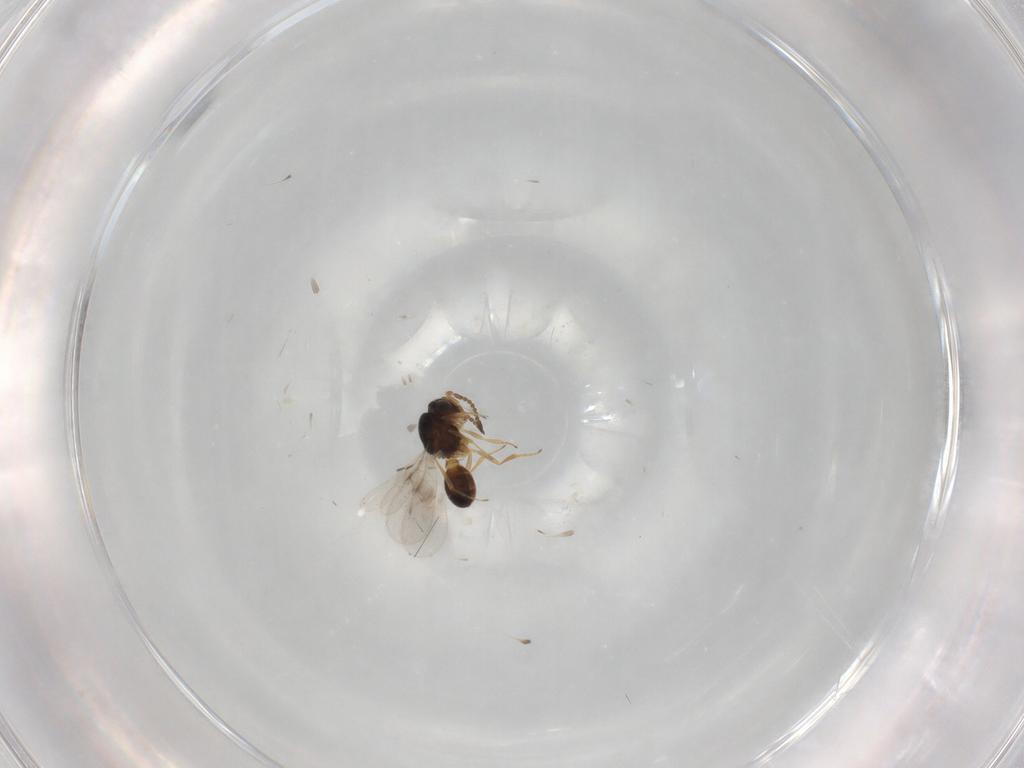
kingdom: Animalia
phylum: Arthropoda
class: Insecta
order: Hymenoptera
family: Scelionidae
